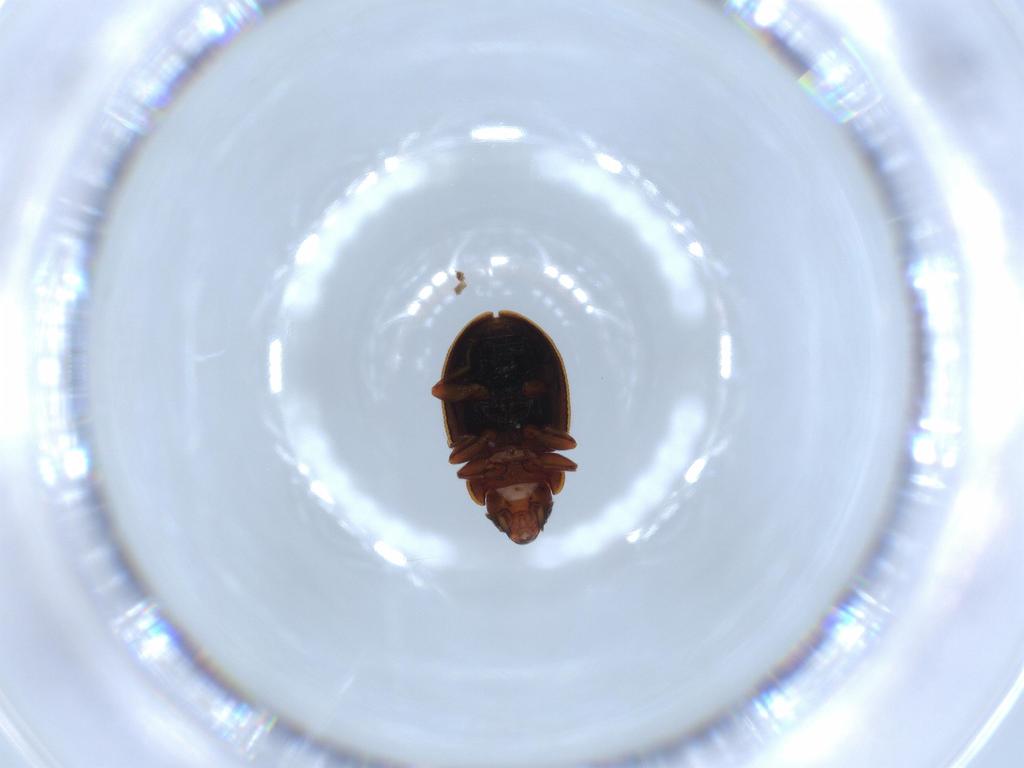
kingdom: Animalia
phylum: Arthropoda
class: Insecta
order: Coleoptera
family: Coccinellidae
